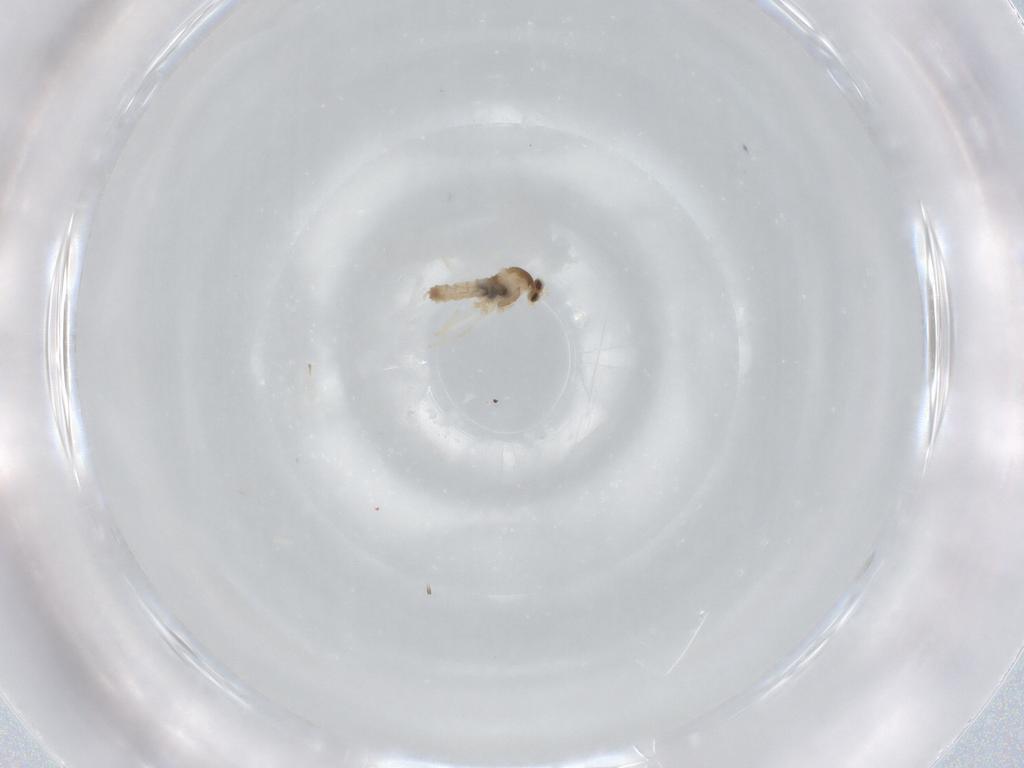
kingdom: Animalia
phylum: Arthropoda
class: Insecta
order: Diptera
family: Cecidomyiidae
